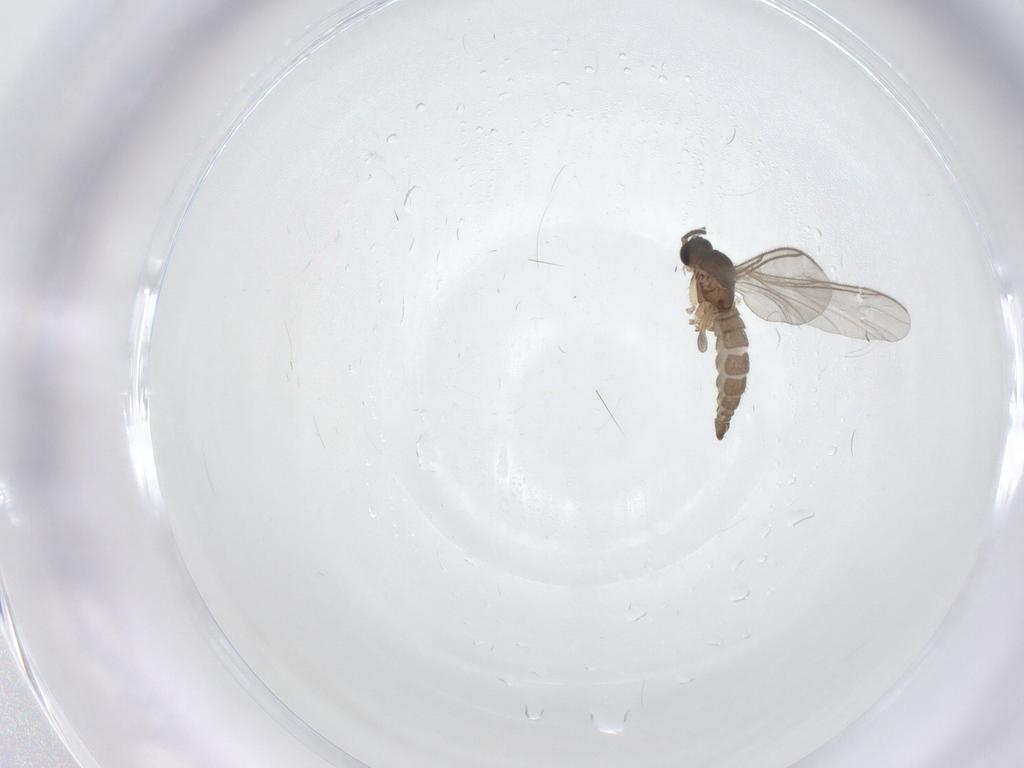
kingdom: Animalia
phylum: Arthropoda
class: Insecta
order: Diptera
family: Sciaridae
